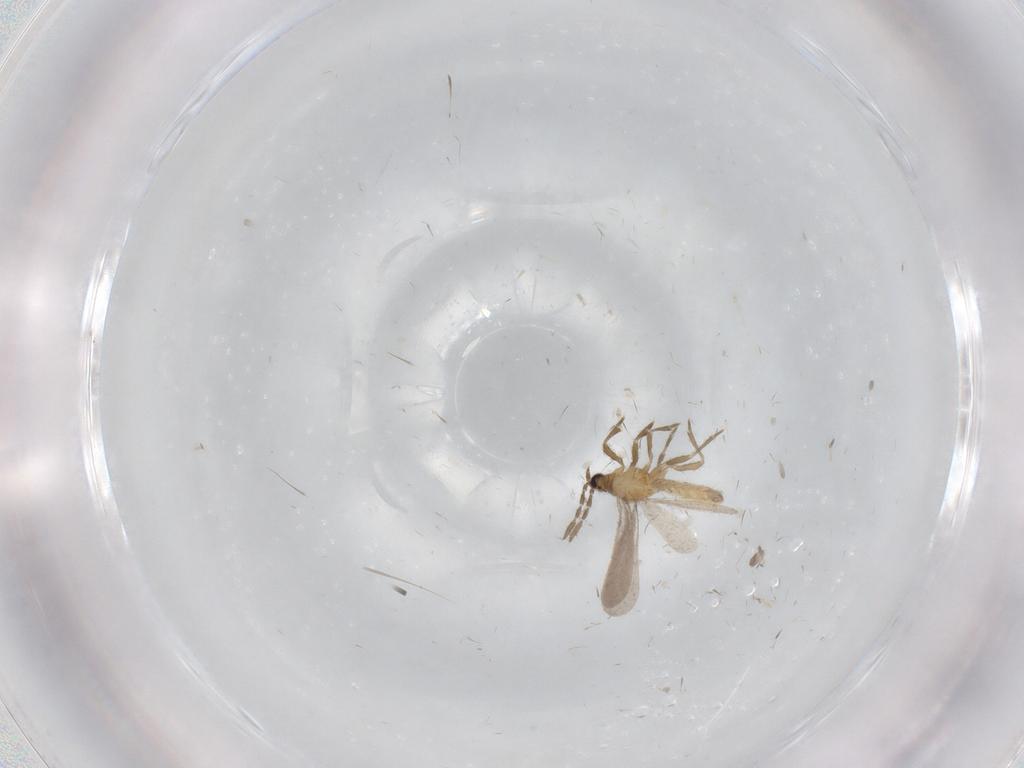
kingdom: Animalia
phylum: Arthropoda
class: Insecta
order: Hemiptera
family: Enicocephalidae
